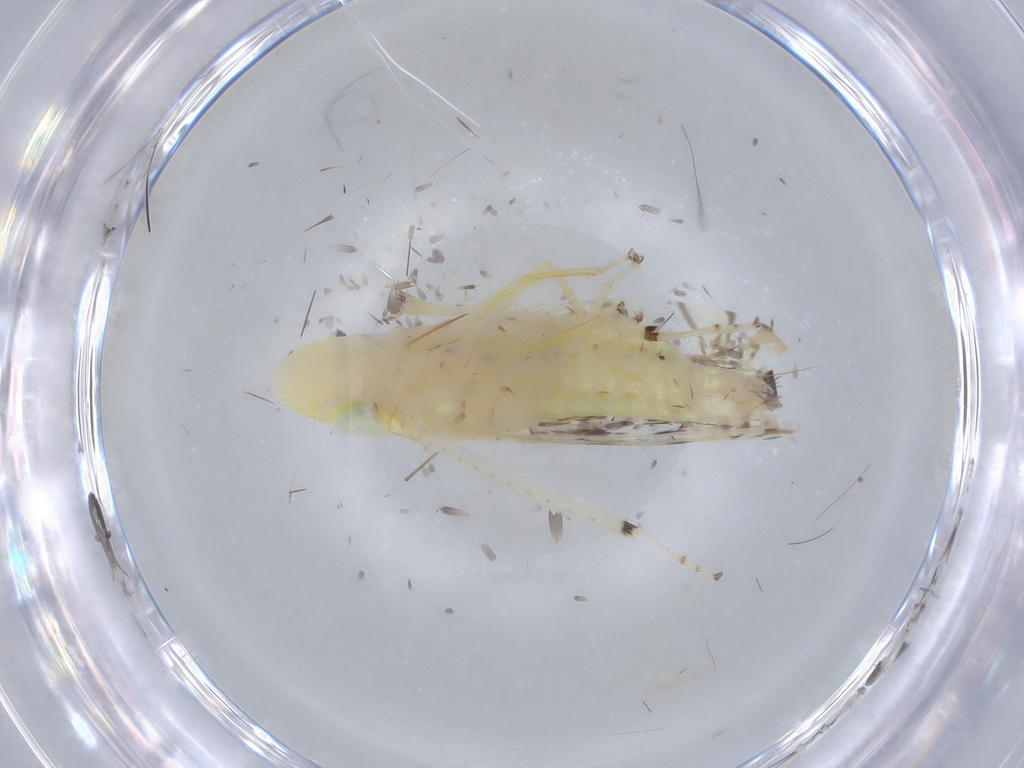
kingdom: Animalia
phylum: Arthropoda
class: Insecta
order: Hemiptera
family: Cicadellidae
